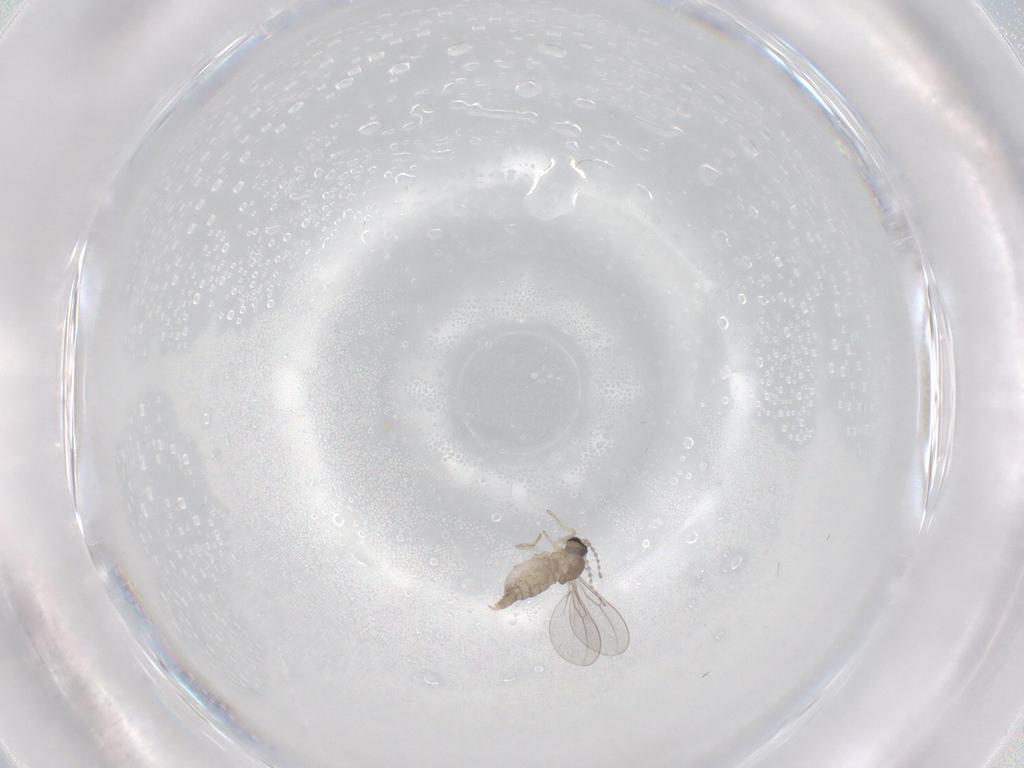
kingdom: Animalia
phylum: Arthropoda
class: Insecta
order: Diptera
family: Cecidomyiidae
